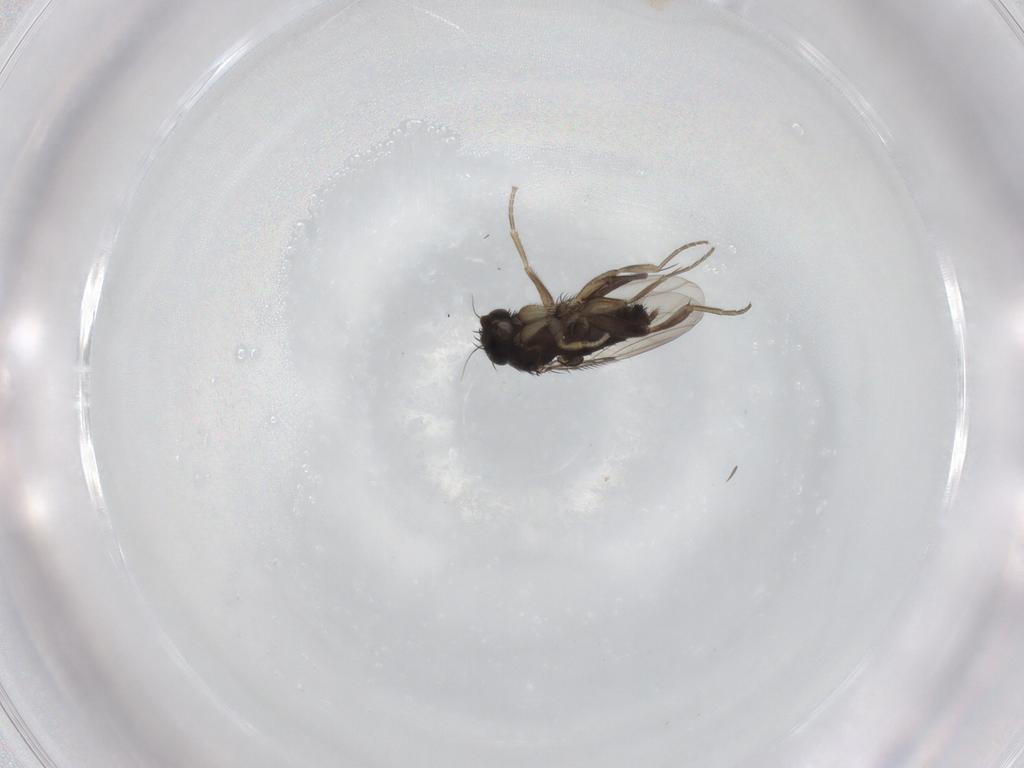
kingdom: Animalia
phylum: Arthropoda
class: Insecta
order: Diptera
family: Ceratopogonidae
